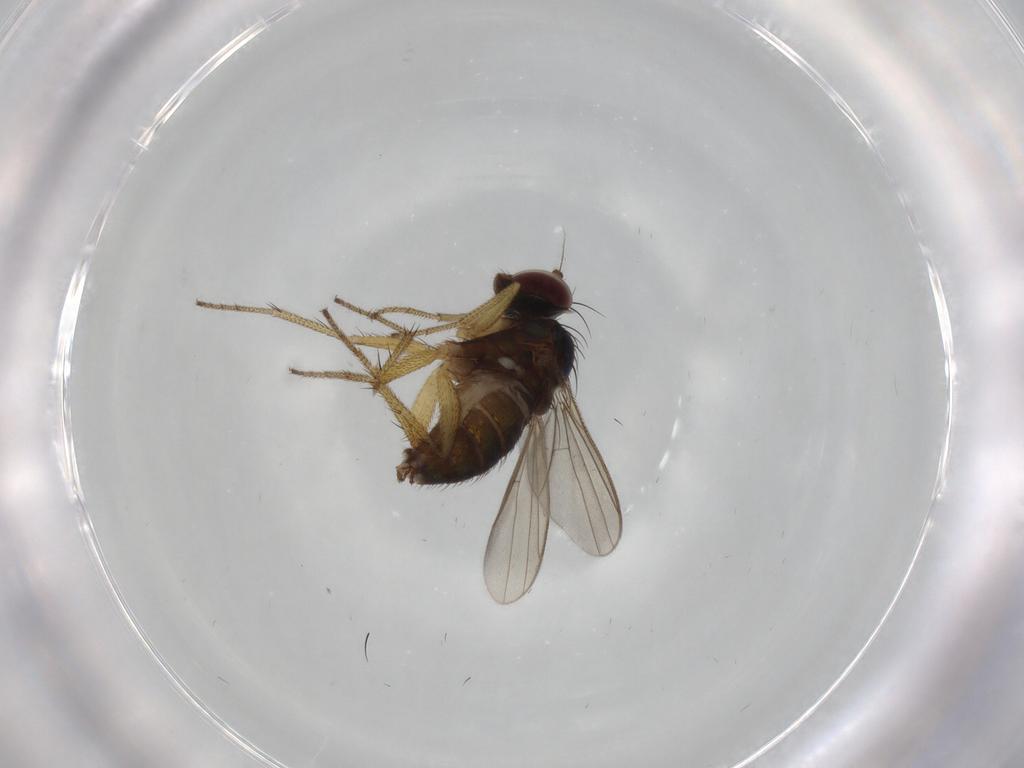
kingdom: Animalia
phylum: Arthropoda
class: Insecta
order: Diptera
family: Dolichopodidae
